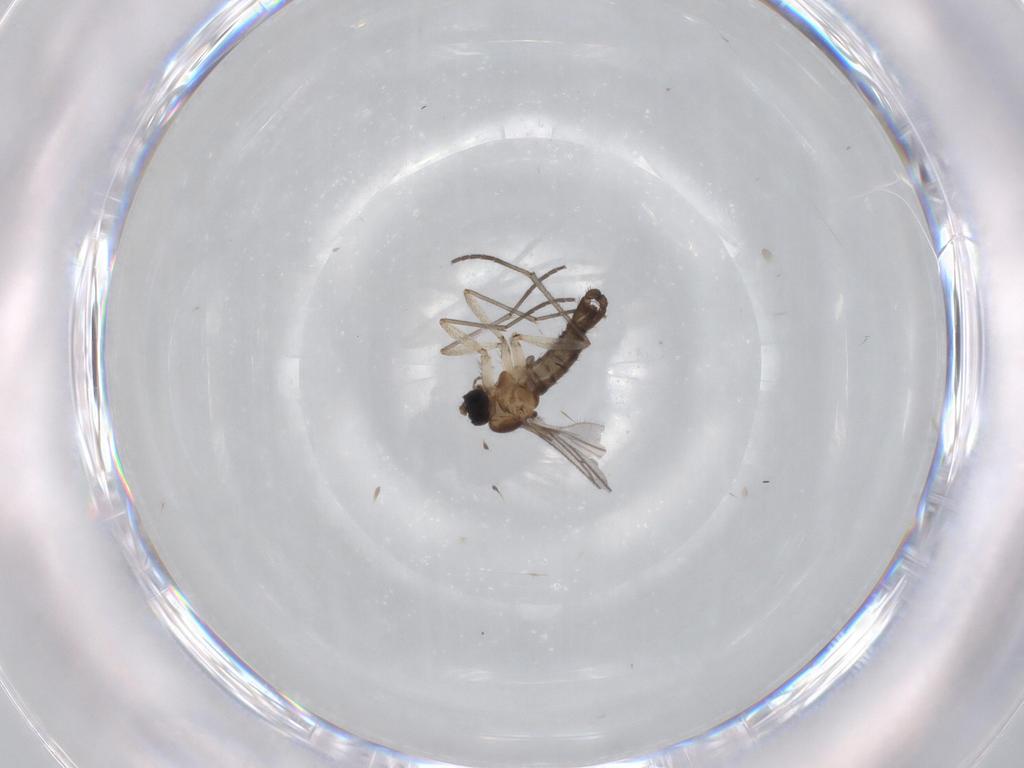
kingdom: Animalia
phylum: Arthropoda
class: Insecta
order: Diptera
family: Sciaridae
